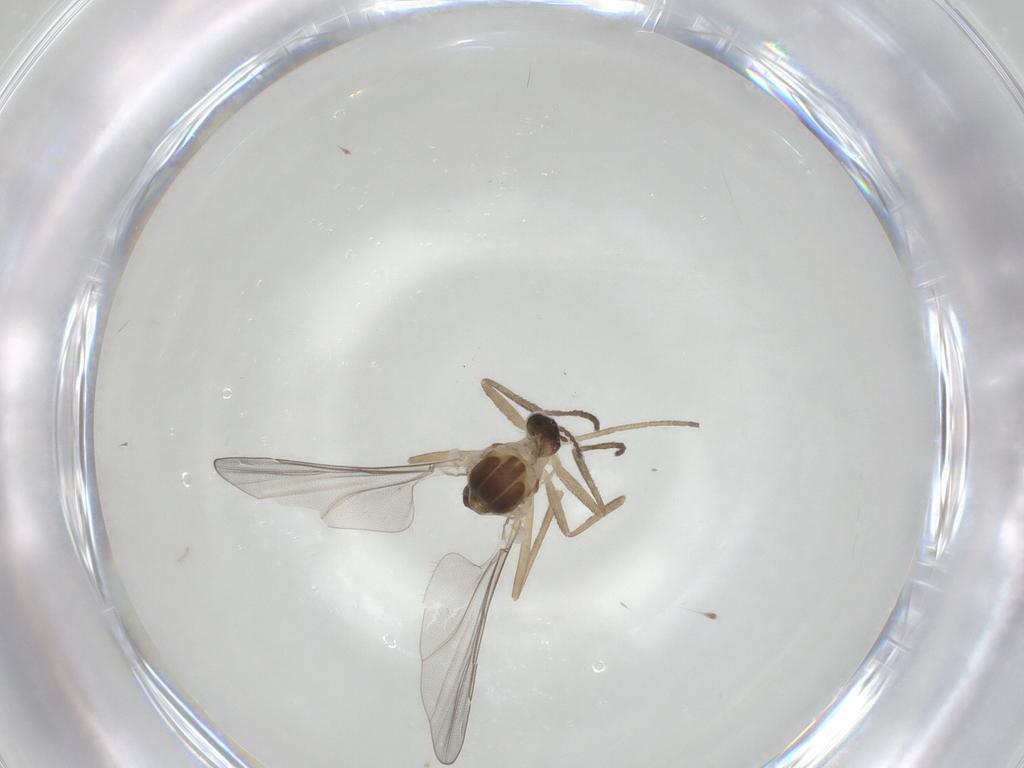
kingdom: Animalia
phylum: Arthropoda
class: Insecta
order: Diptera
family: Cecidomyiidae
